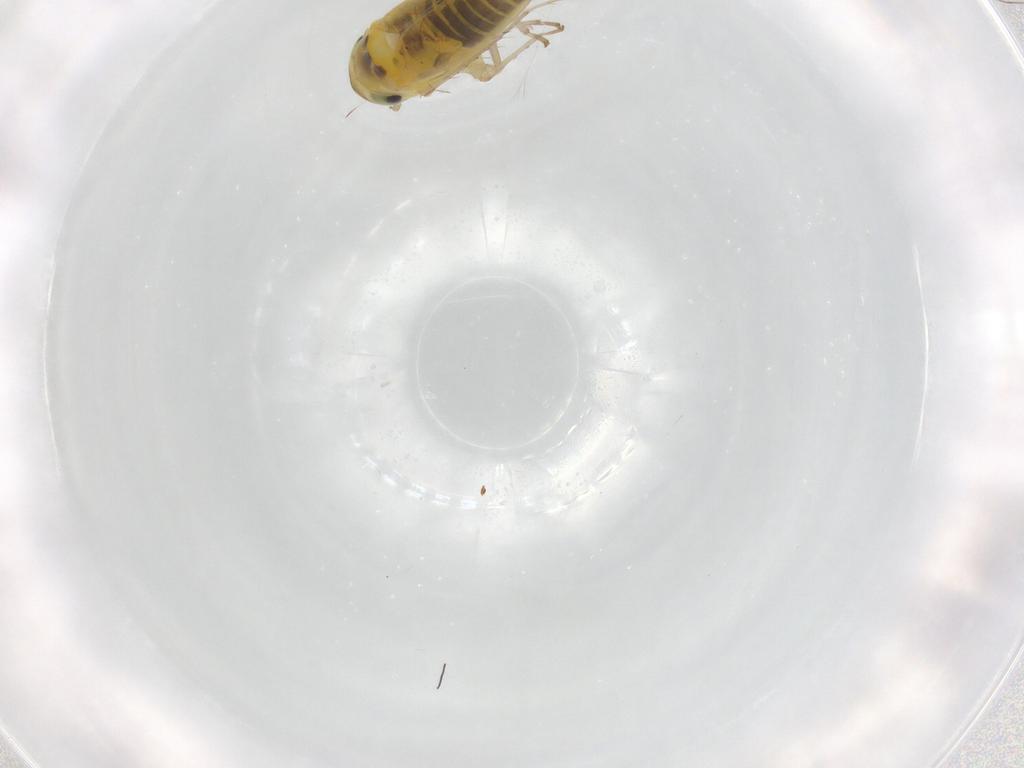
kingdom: Animalia
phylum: Arthropoda
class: Insecta
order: Hemiptera
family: Cicadellidae
